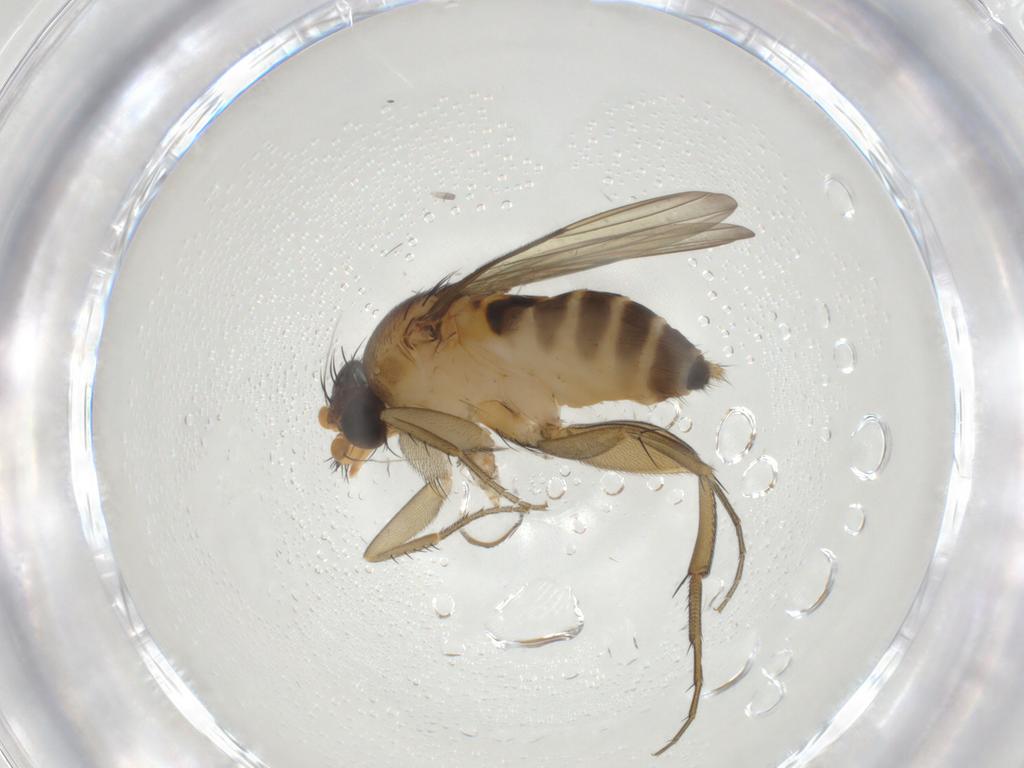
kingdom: Animalia
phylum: Arthropoda
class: Insecta
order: Diptera
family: Cecidomyiidae
